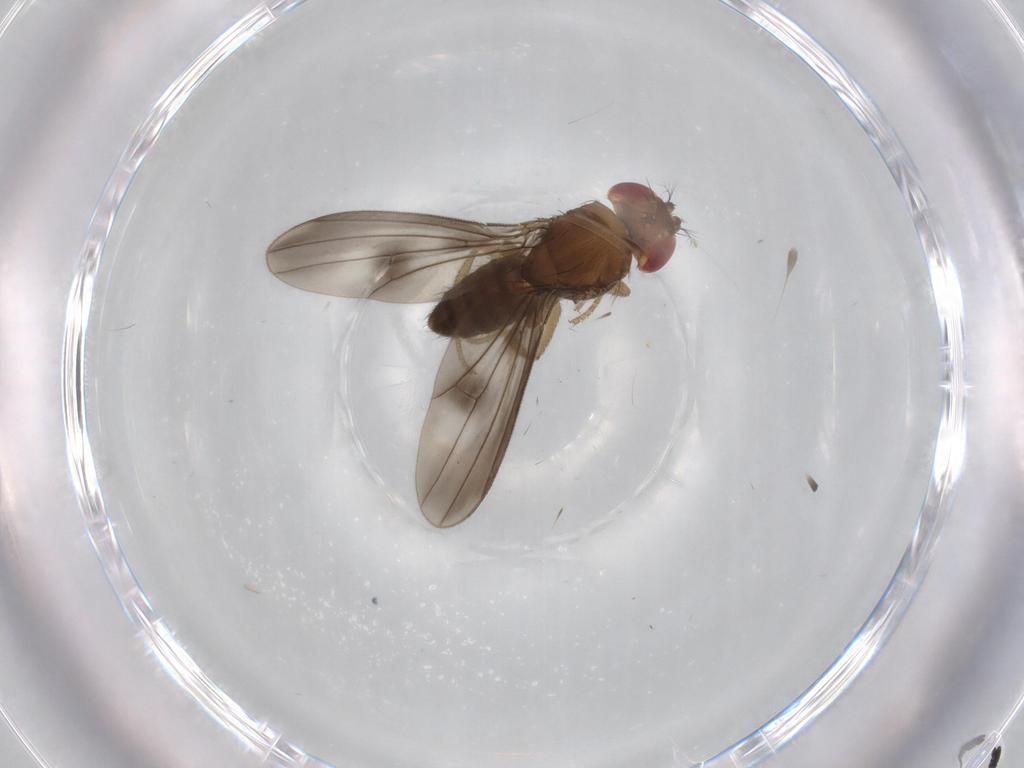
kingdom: Animalia
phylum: Arthropoda
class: Insecta
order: Diptera
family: Drosophilidae
